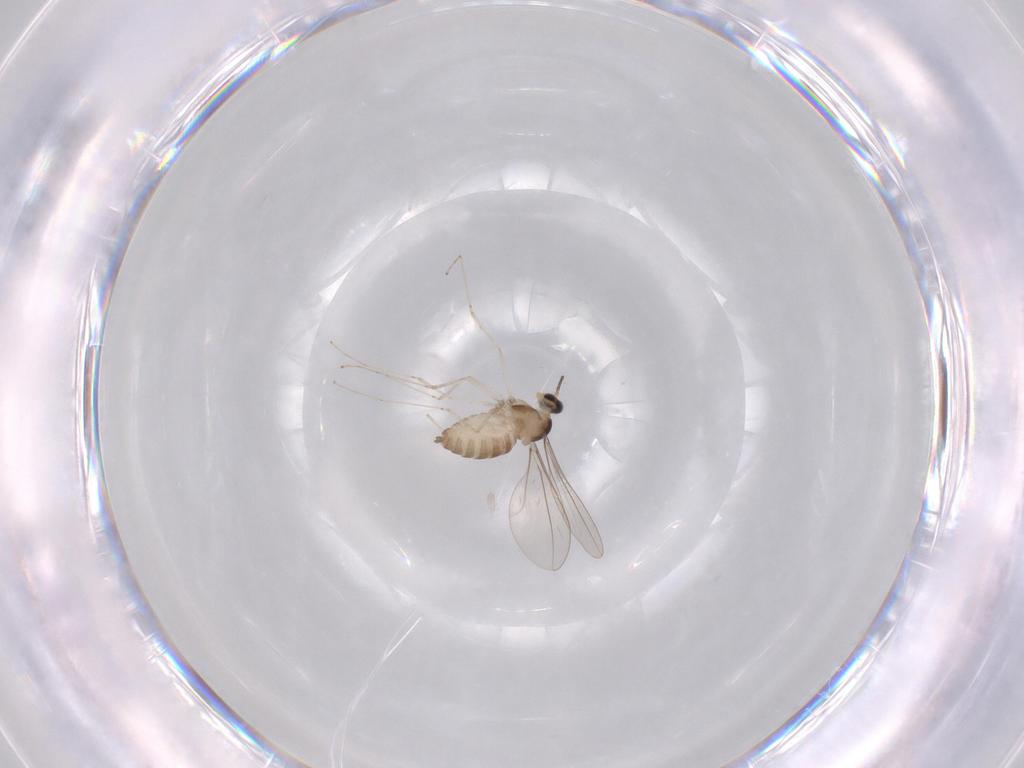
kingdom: Animalia
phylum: Arthropoda
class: Insecta
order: Diptera
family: Cecidomyiidae
